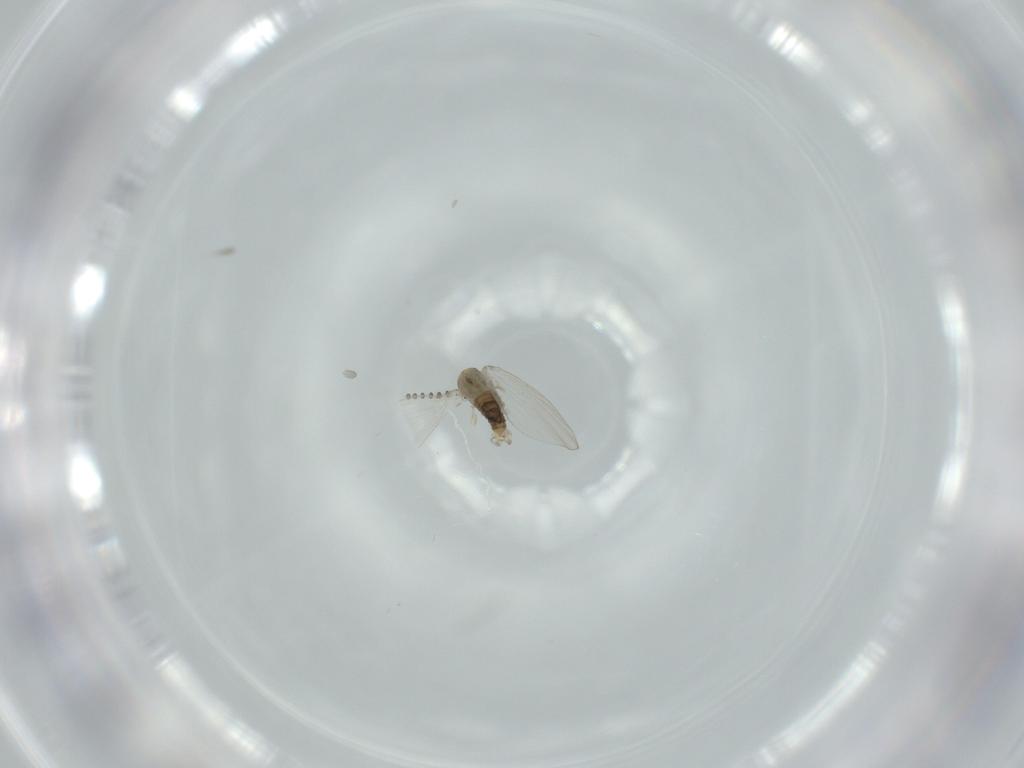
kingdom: Animalia
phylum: Arthropoda
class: Insecta
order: Diptera
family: Psychodidae
